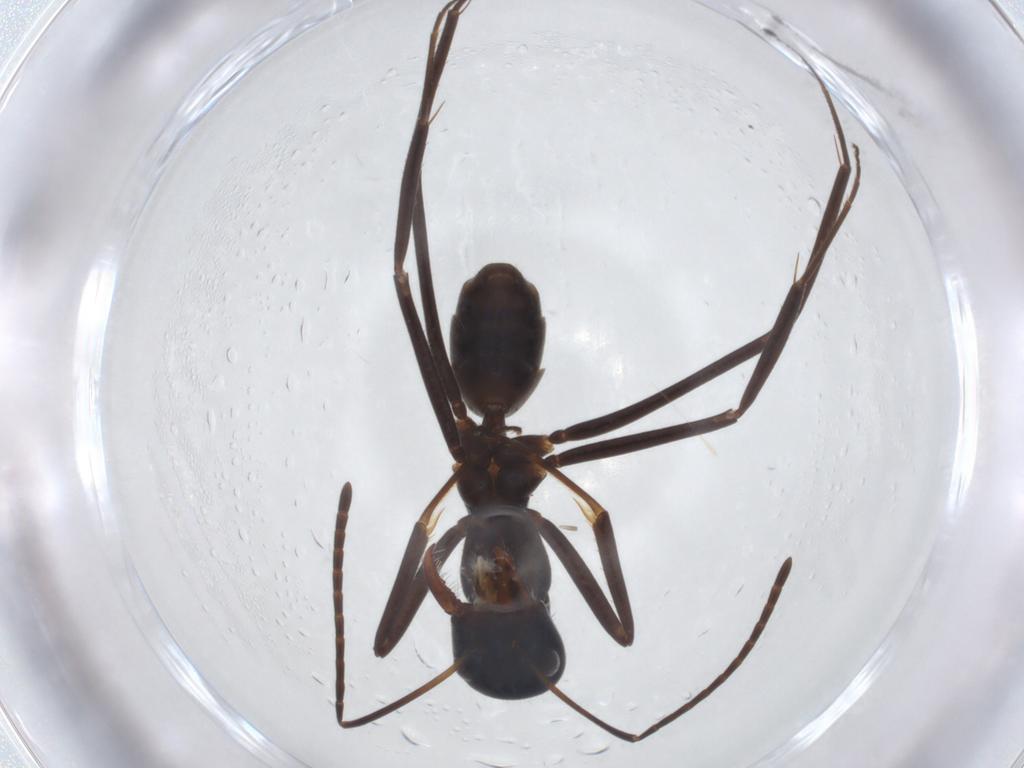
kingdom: Animalia
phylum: Arthropoda
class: Insecta
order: Hymenoptera
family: Formicidae
